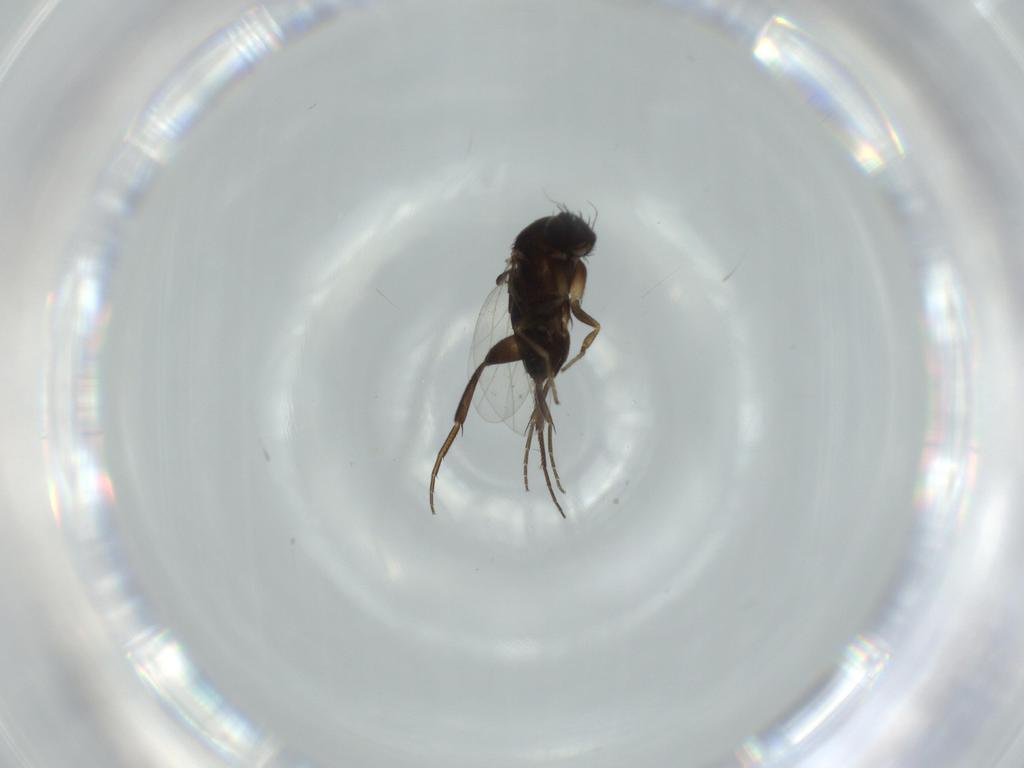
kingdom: Animalia
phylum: Arthropoda
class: Insecta
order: Diptera
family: Phoridae
